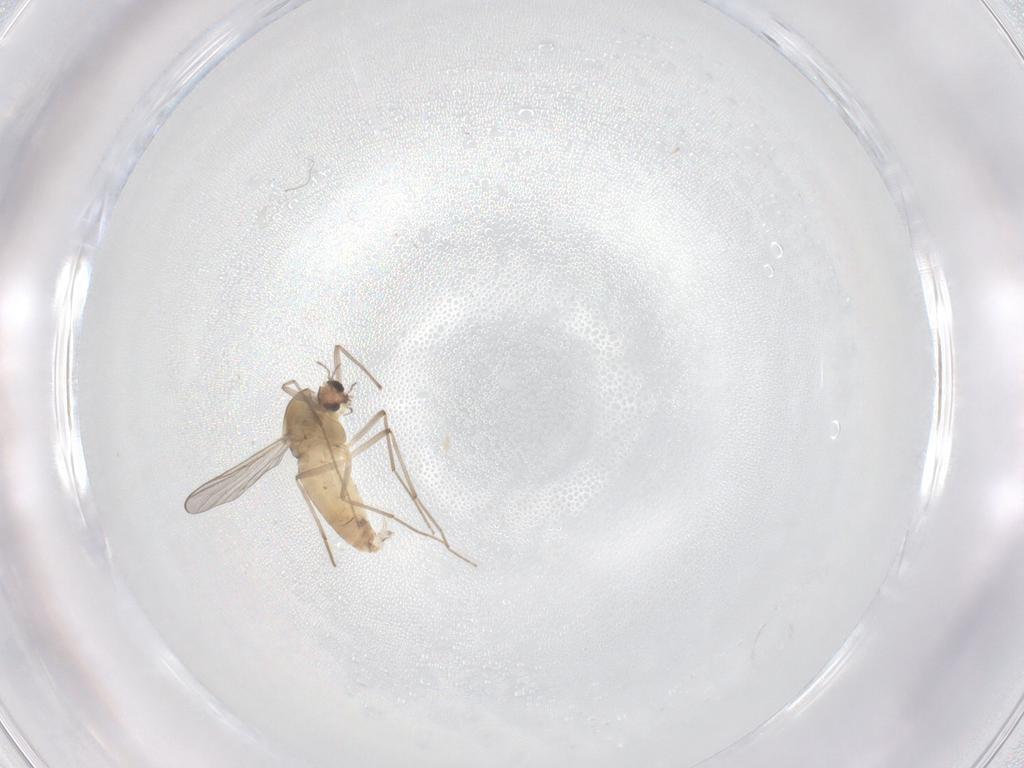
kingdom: Animalia
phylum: Arthropoda
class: Insecta
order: Diptera
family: Chironomidae
